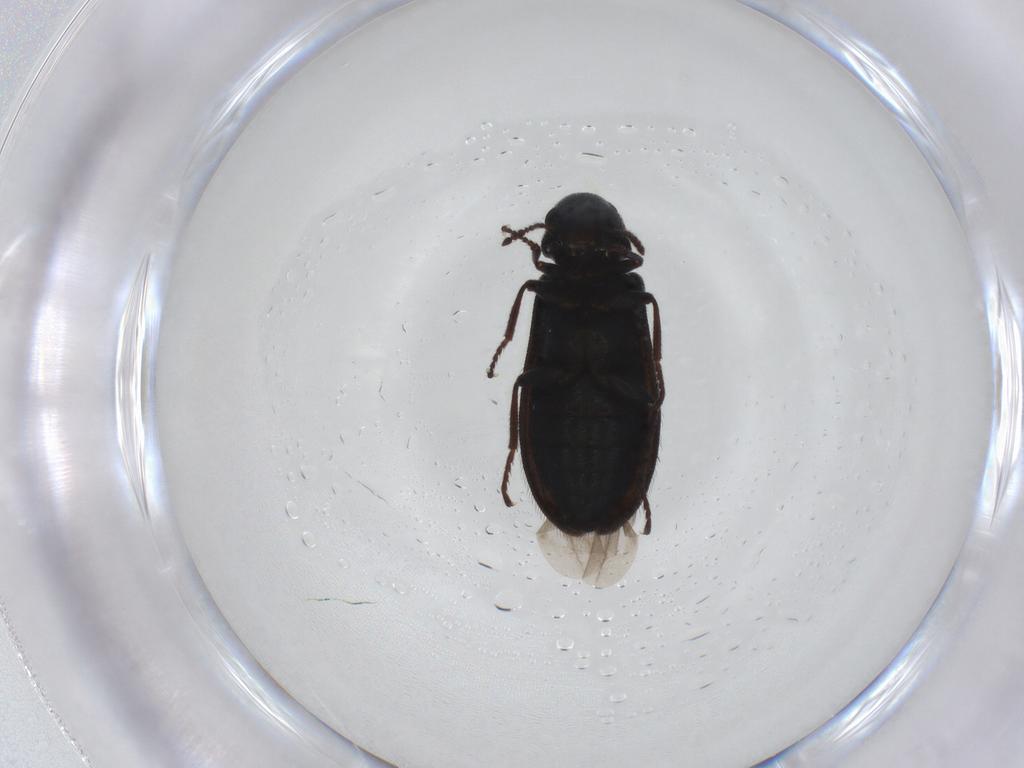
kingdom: Animalia
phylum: Arthropoda
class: Insecta
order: Coleoptera
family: Melyridae
